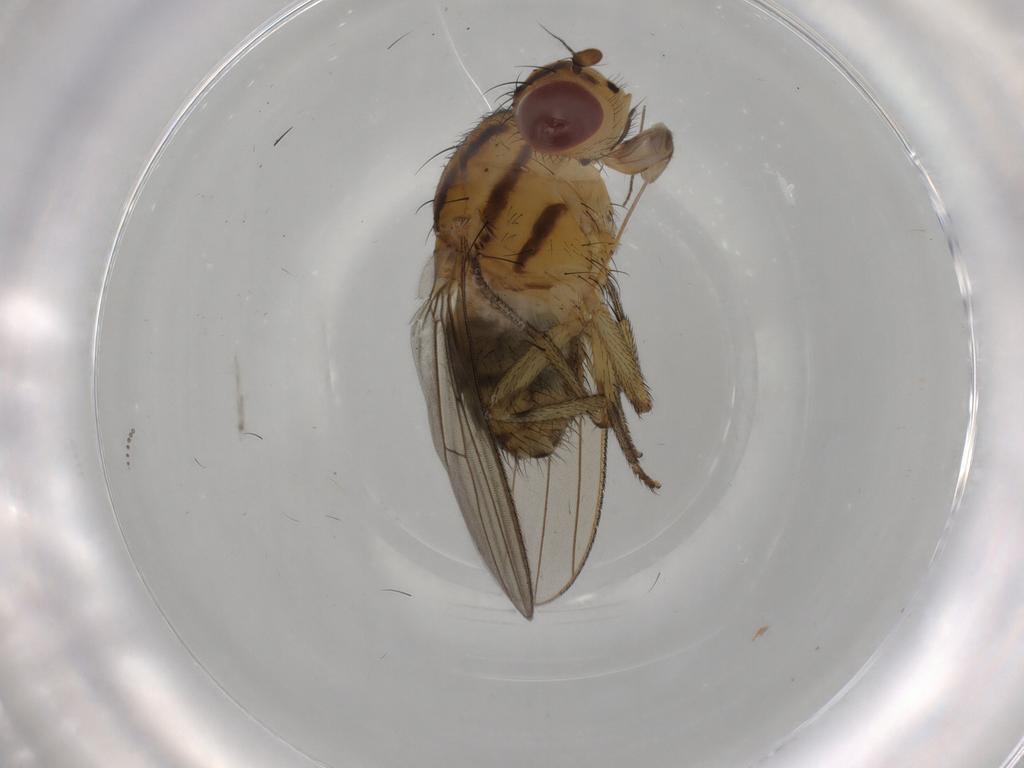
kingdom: Animalia
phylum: Arthropoda
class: Insecta
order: Diptera
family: Chironomidae
